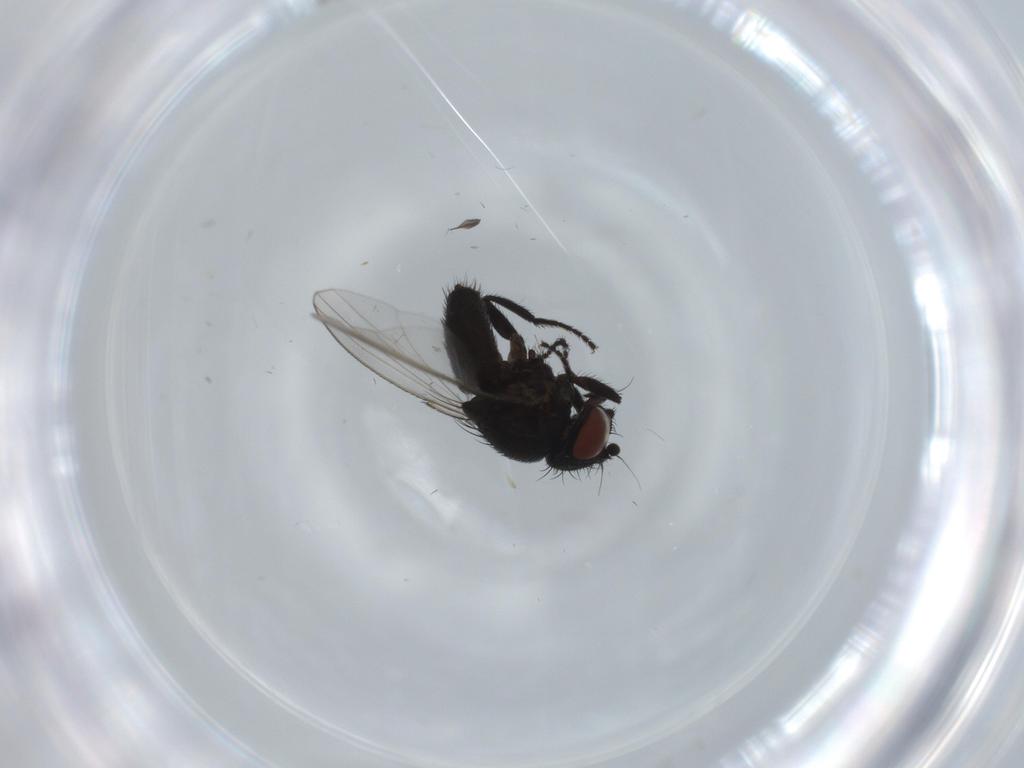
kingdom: Animalia
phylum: Arthropoda
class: Insecta
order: Diptera
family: Milichiidae
